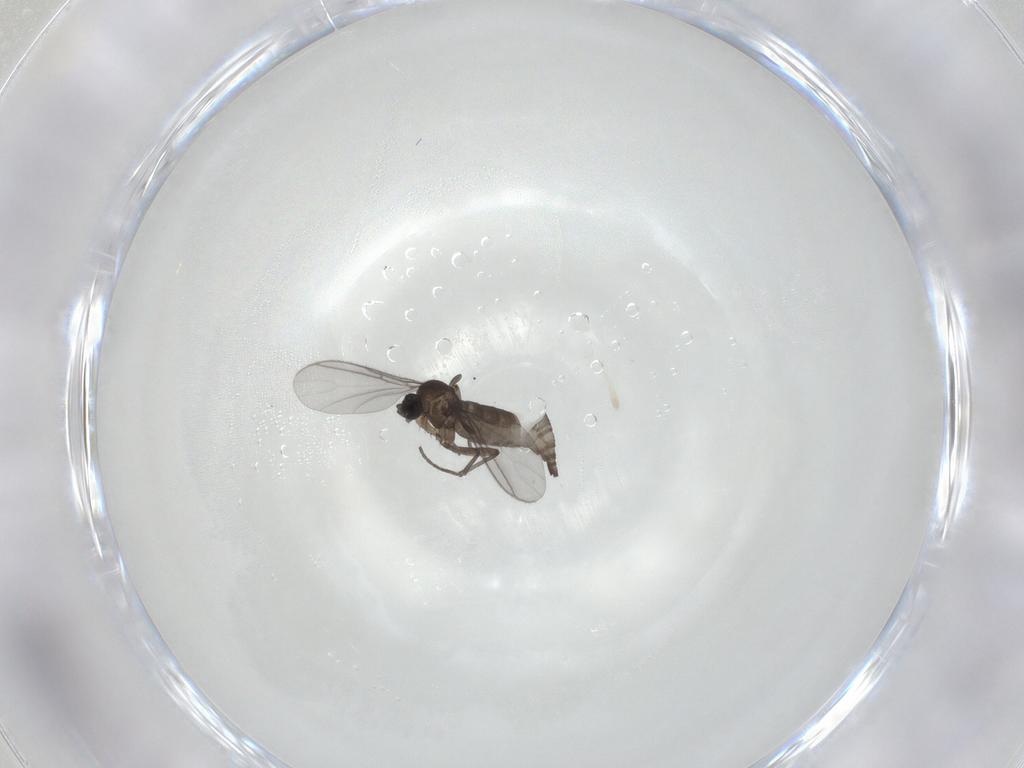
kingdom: Animalia
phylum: Arthropoda
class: Insecta
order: Diptera
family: Sciaridae
